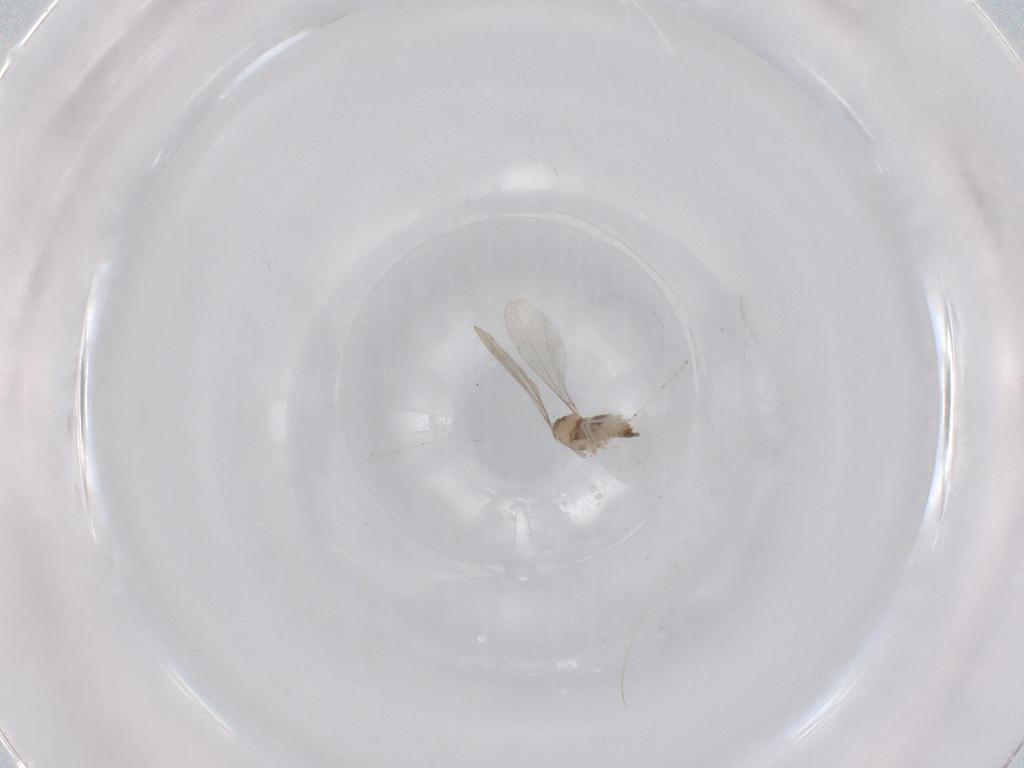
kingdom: Animalia
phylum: Arthropoda
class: Insecta
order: Diptera
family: Cecidomyiidae
